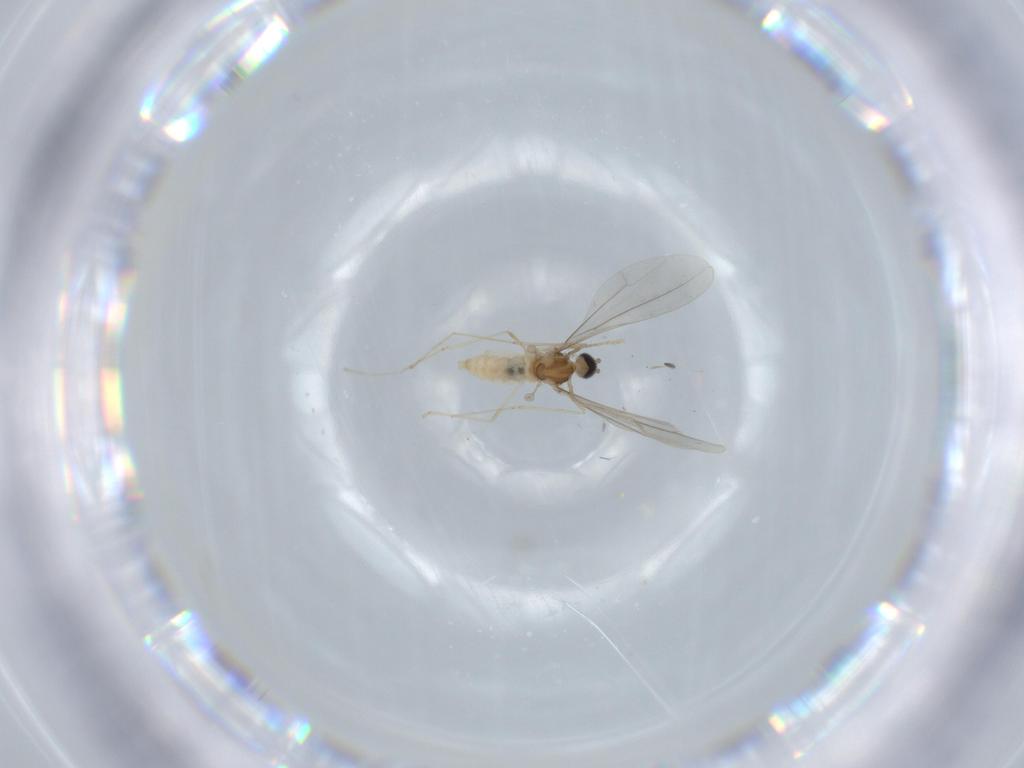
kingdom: Animalia
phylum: Arthropoda
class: Insecta
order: Diptera
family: Cecidomyiidae
